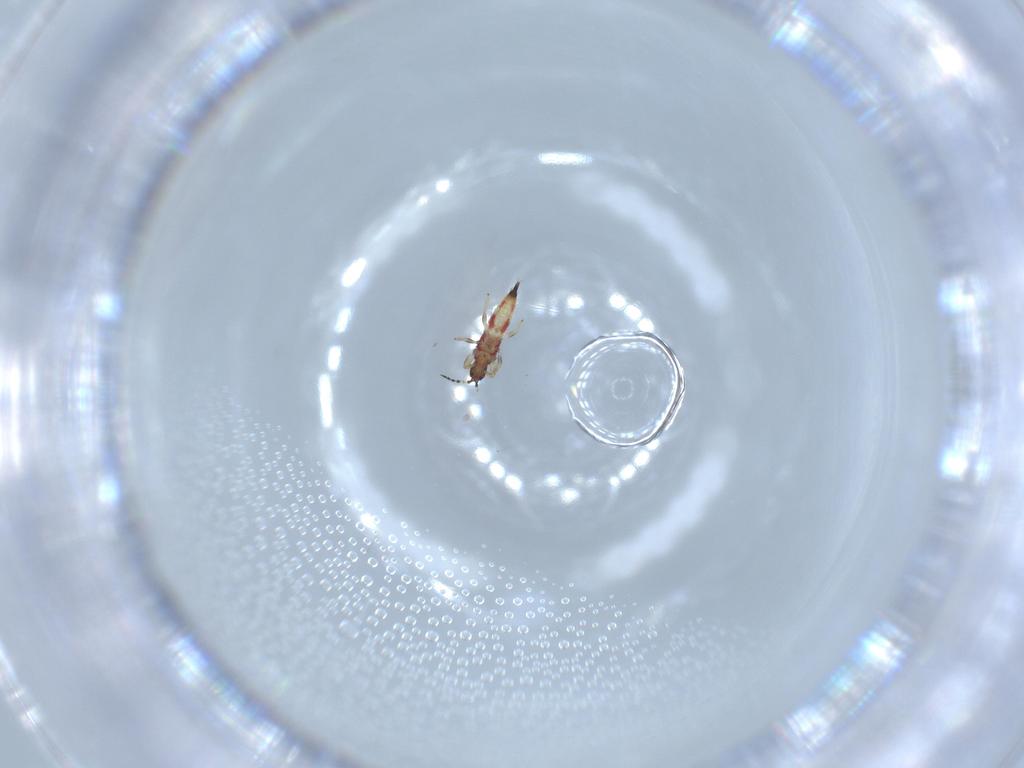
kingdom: Animalia
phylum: Arthropoda
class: Insecta
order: Thysanoptera
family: Phlaeothripidae
